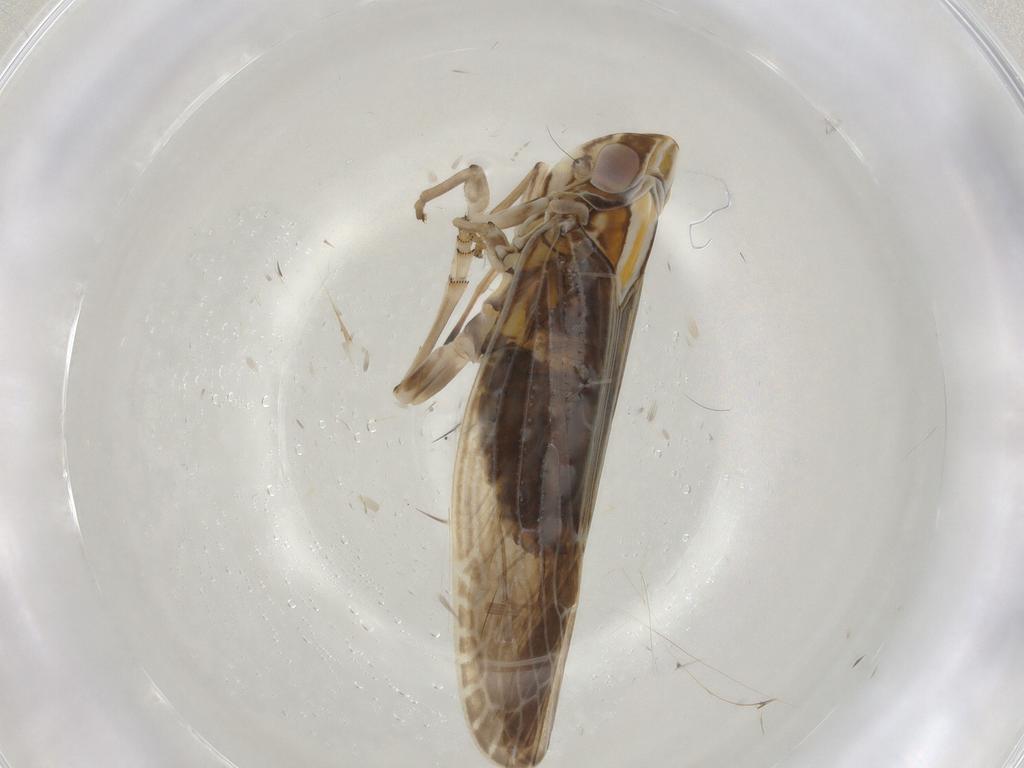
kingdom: Animalia
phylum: Arthropoda
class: Insecta
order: Hemiptera
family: Achilidae
